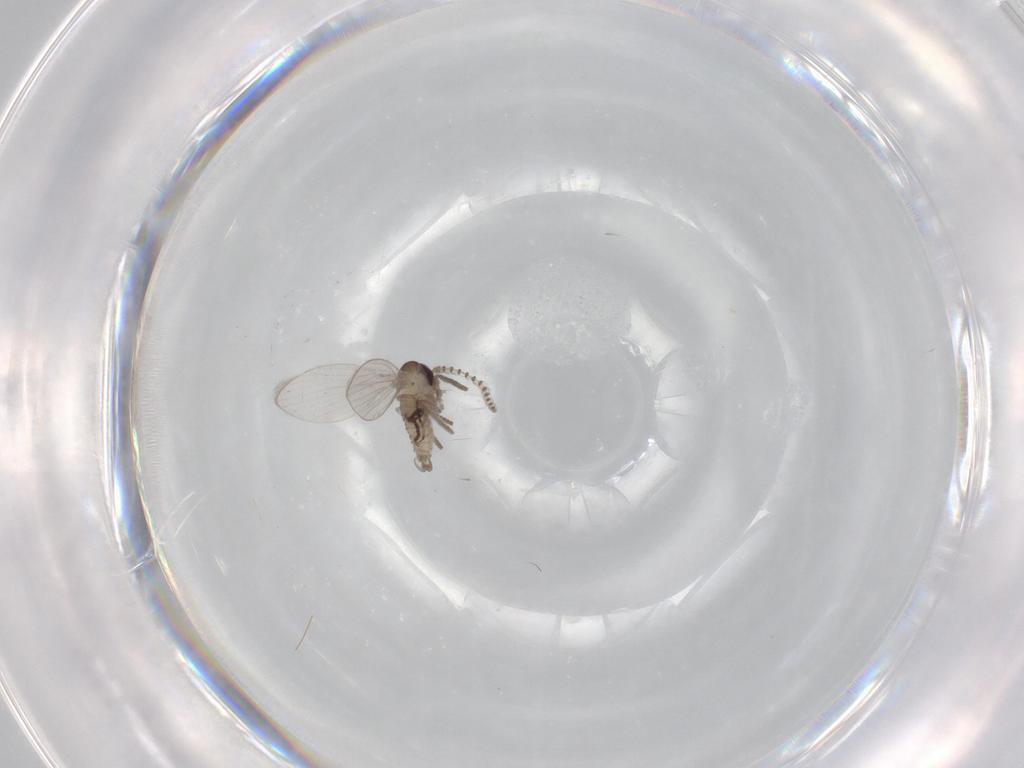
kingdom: Animalia
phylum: Arthropoda
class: Insecta
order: Diptera
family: Psychodidae
